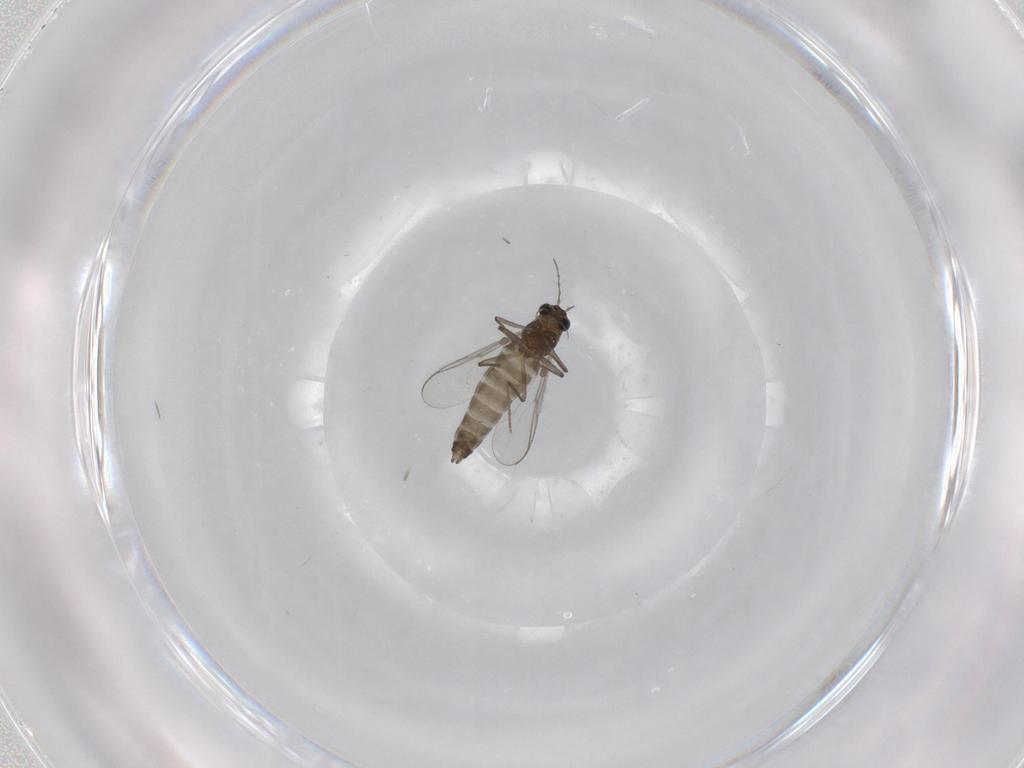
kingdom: Animalia
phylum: Arthropoda
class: Insecta
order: Diptera
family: Chironomidae
